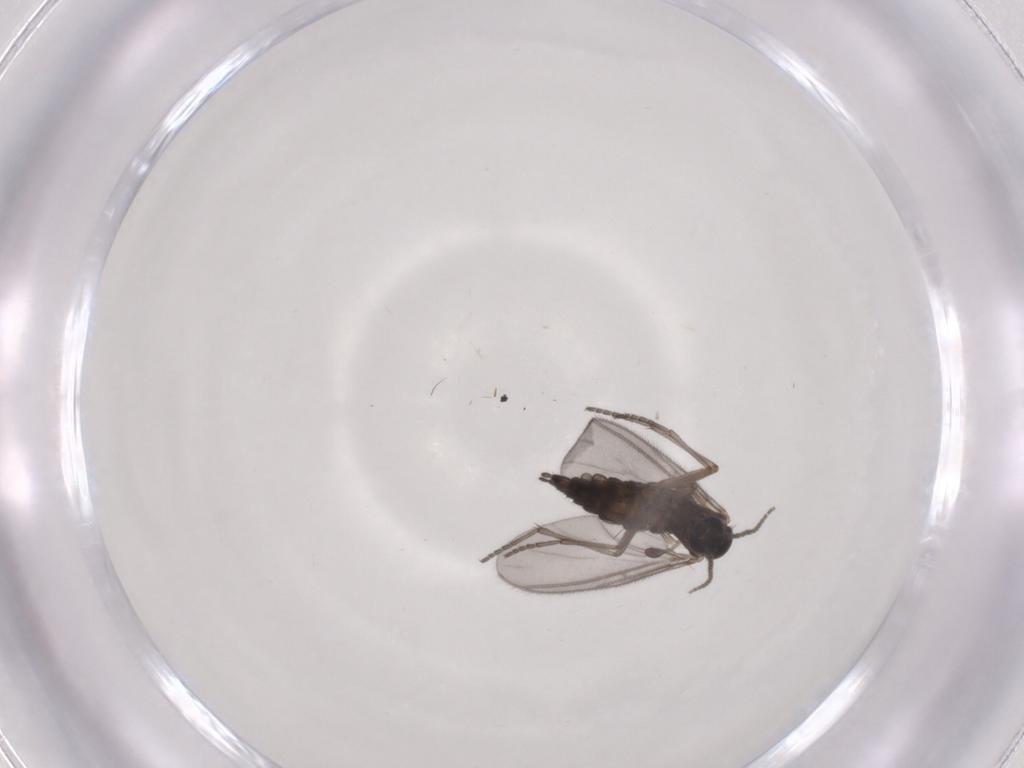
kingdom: Animalia
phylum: Arthropoda
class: Insecta
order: Diptera
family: Sciaridae
